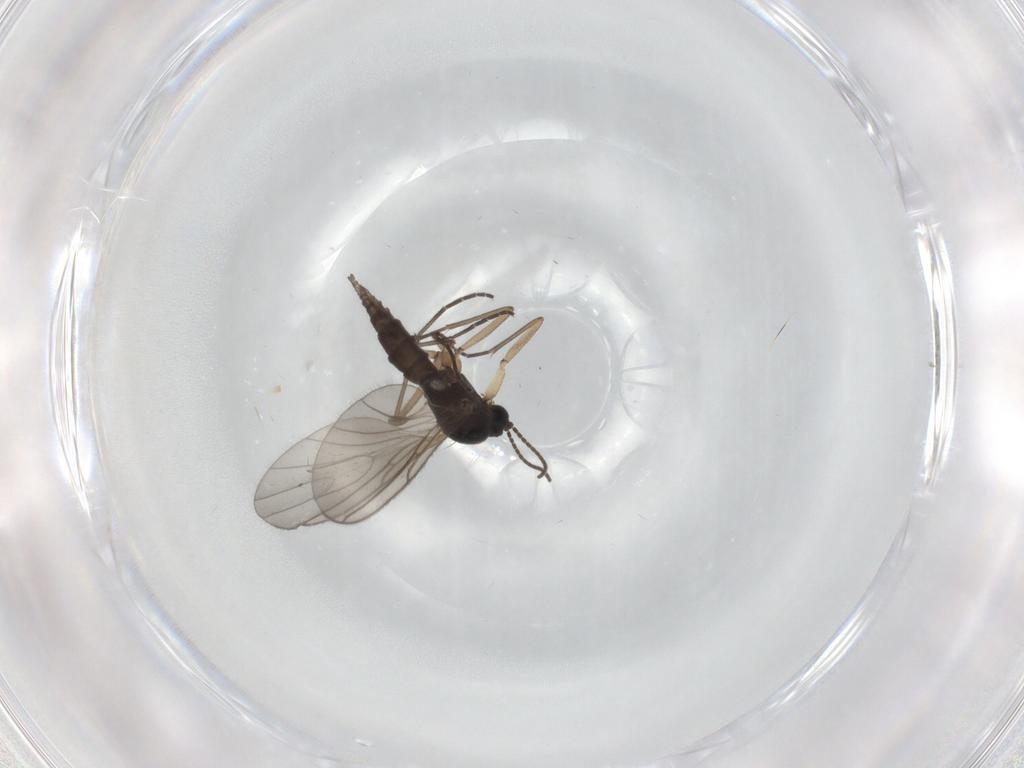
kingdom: Animalia
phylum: Arthropoda
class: Insecta
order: Diptera
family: Sciaridae
